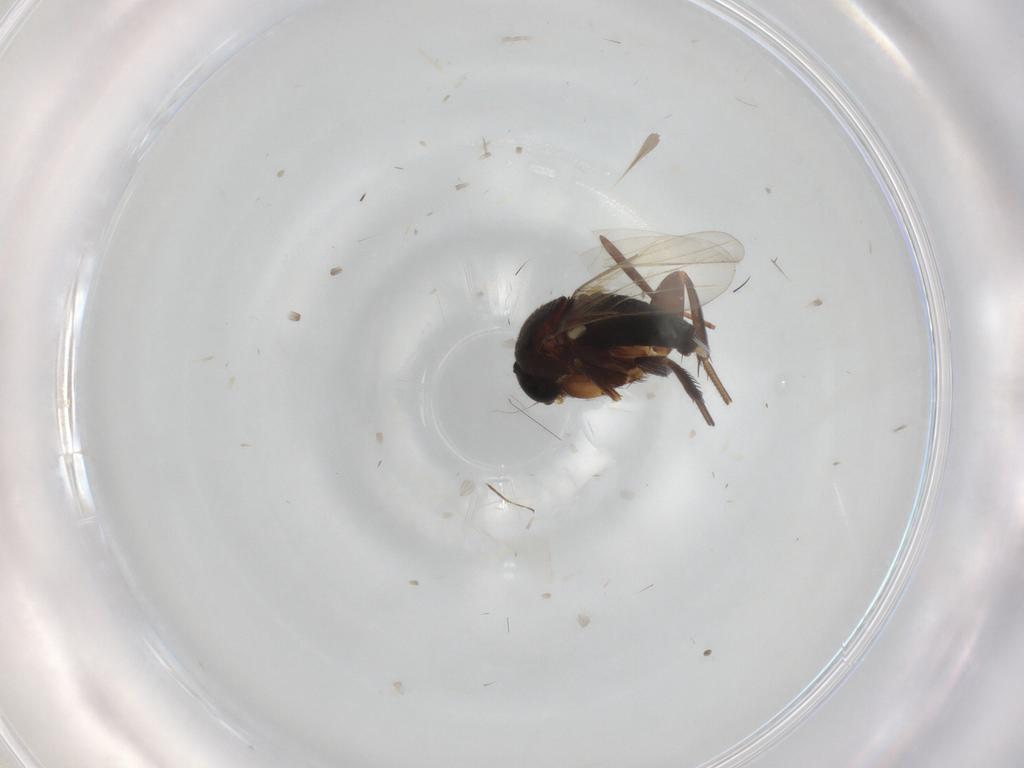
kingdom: Animalia
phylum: Arthropoda
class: Insecta
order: Diptera
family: Phoridae
